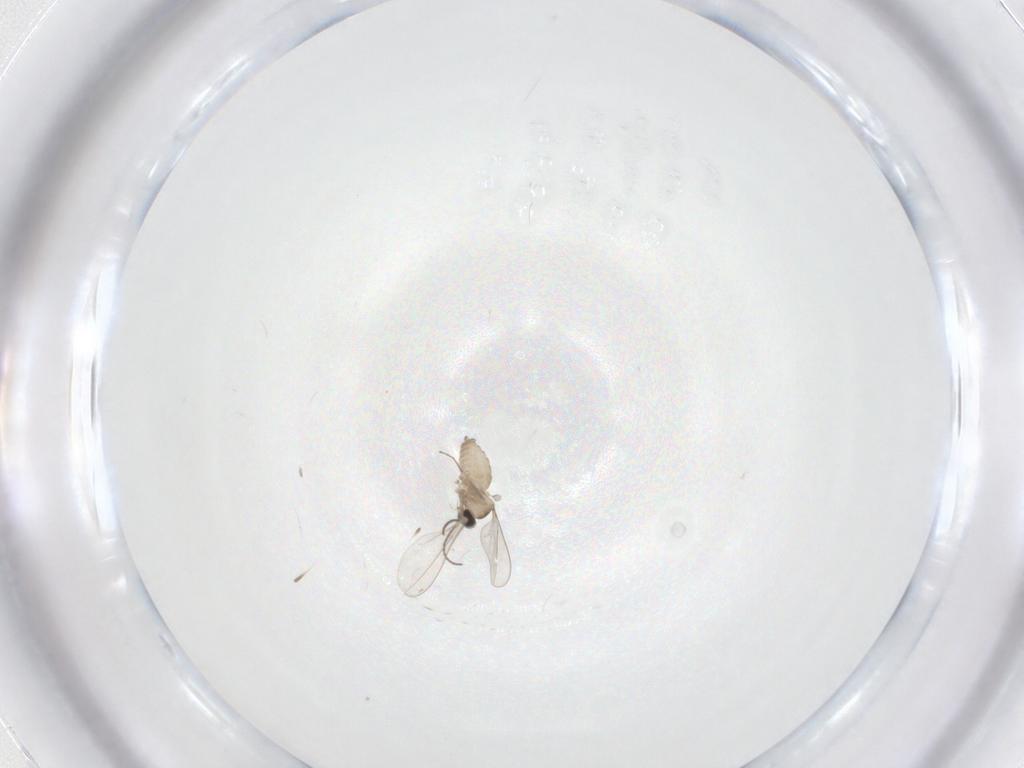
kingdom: Animalia
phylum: Arthropoda
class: Insecta
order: Diptera
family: Cecidomyiidae
